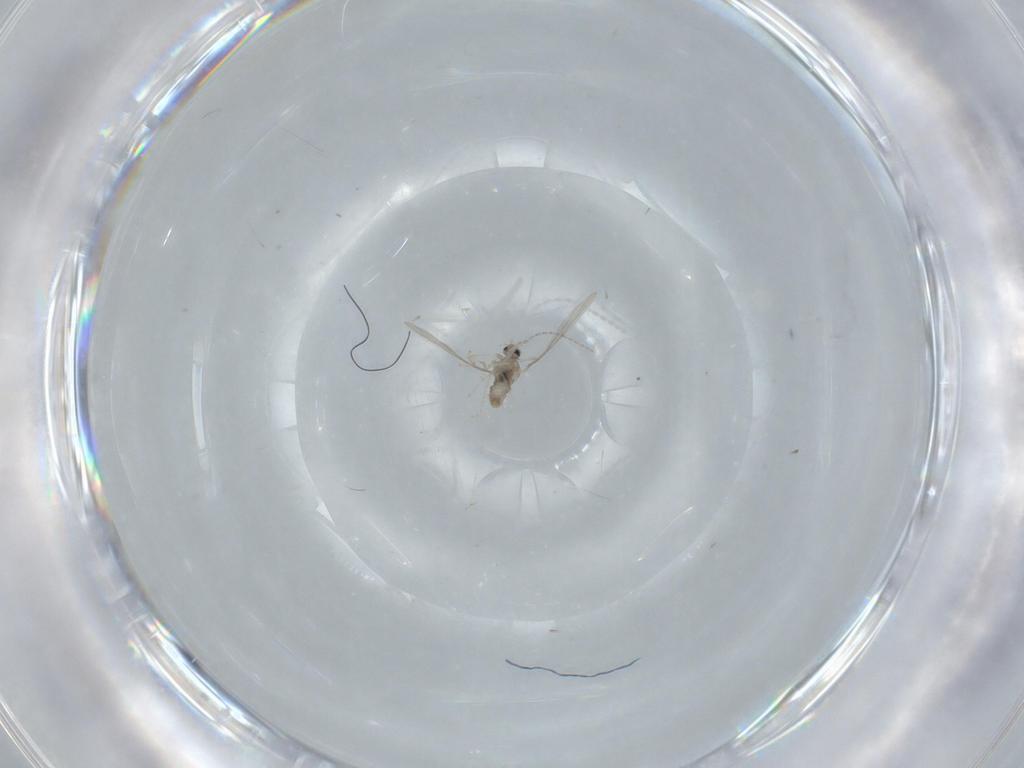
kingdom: Animalia
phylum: Arthropoda
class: Insecta
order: Diptera
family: Cecidomyiidae
